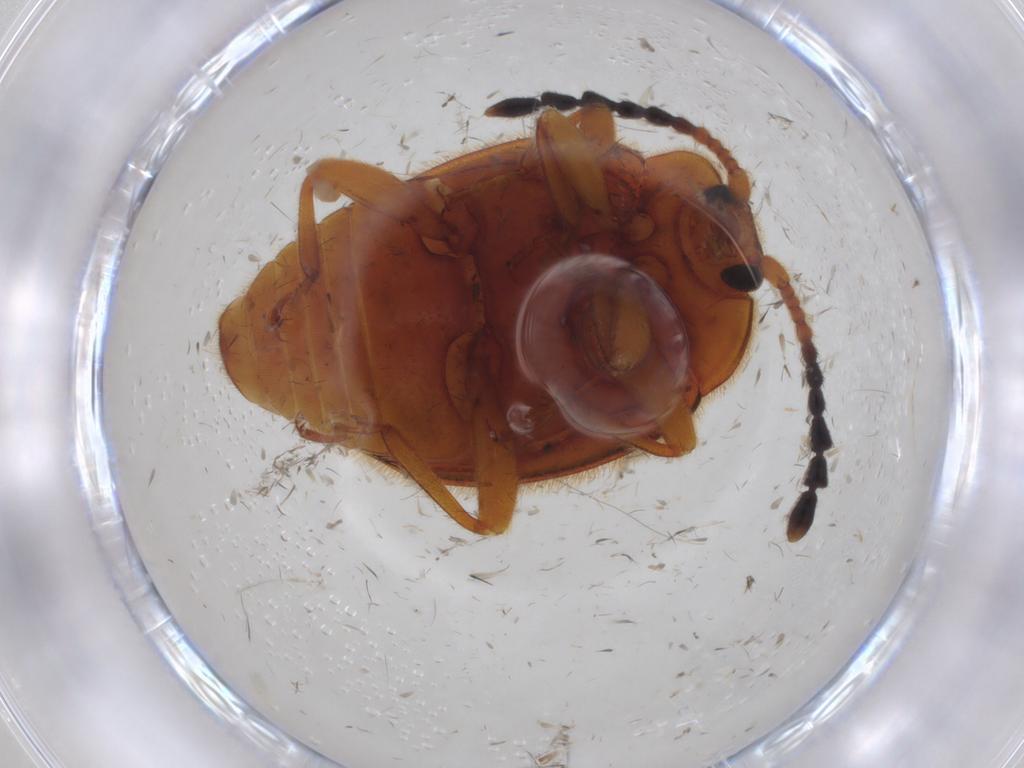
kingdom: Animalia
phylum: Arthropoda
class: Insecta
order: Coleoptera
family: Endomychidae
